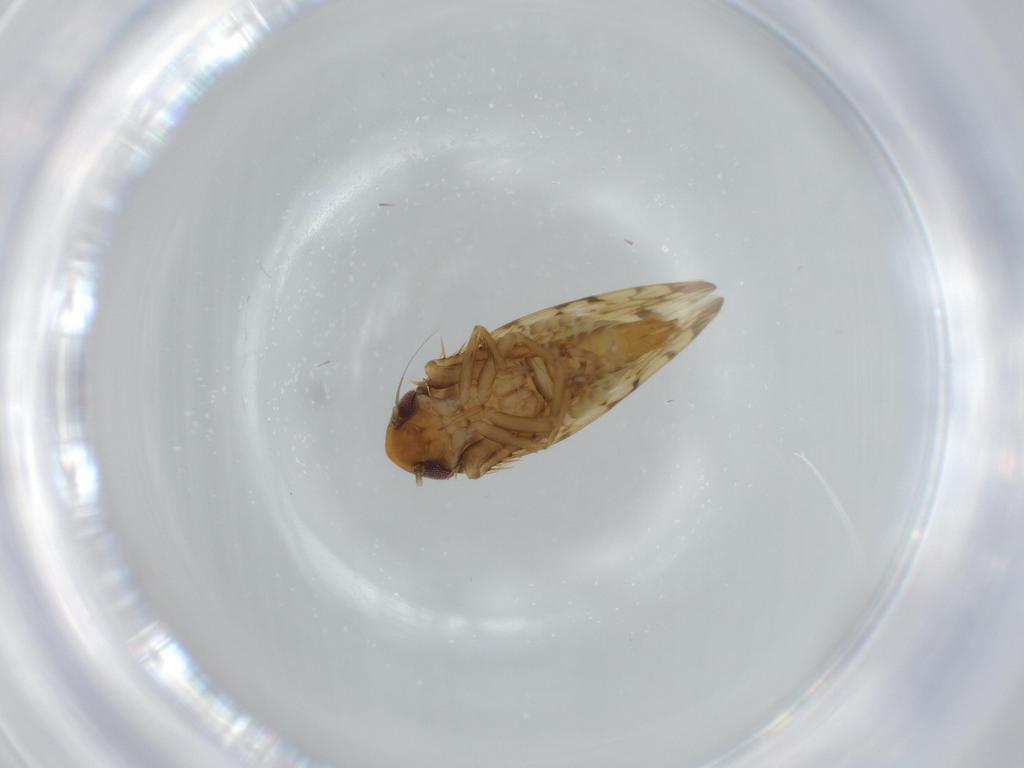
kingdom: Animalia
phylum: Arthropoda
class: Insecta
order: Hemiptera
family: Cicadellidae
